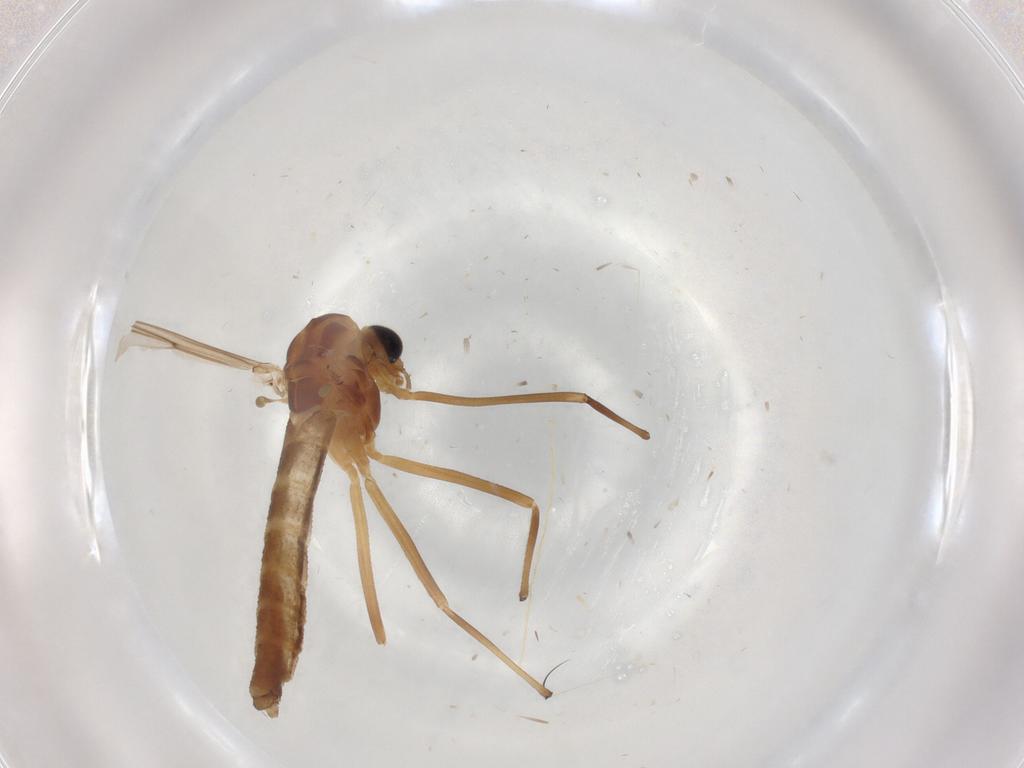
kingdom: Animalia
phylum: Arthropoda
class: Insecta
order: Diptera
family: Chironomidae
